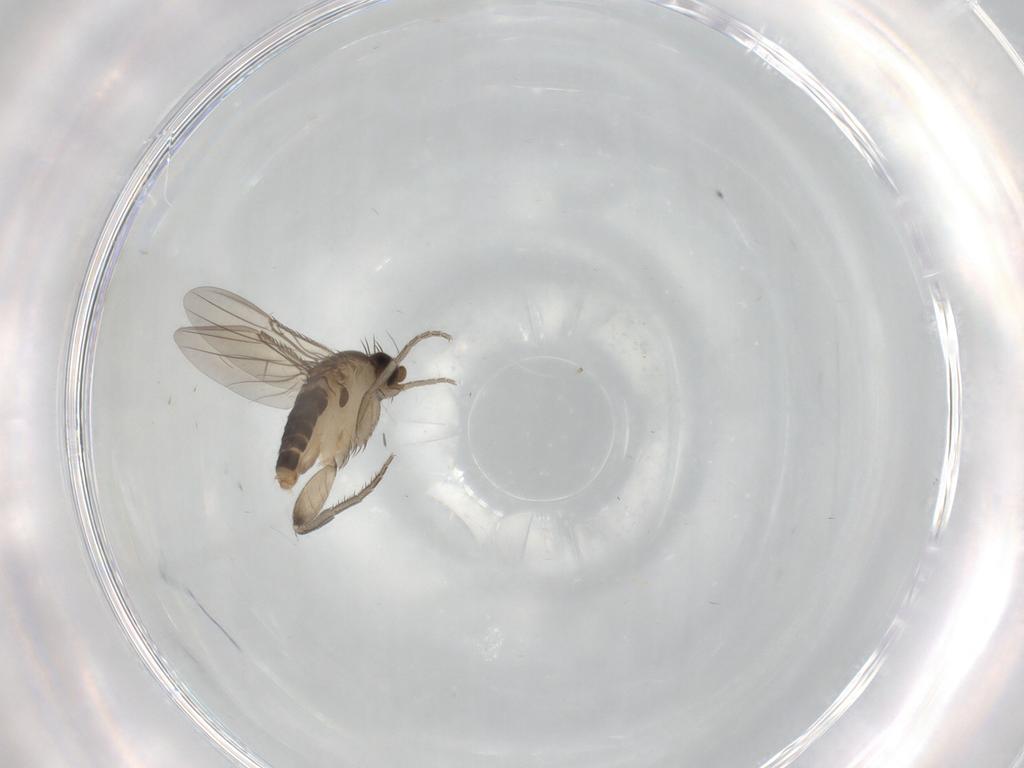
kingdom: Animalia
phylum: Arthropoda
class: Insecta
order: Diptera
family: Phoridae
